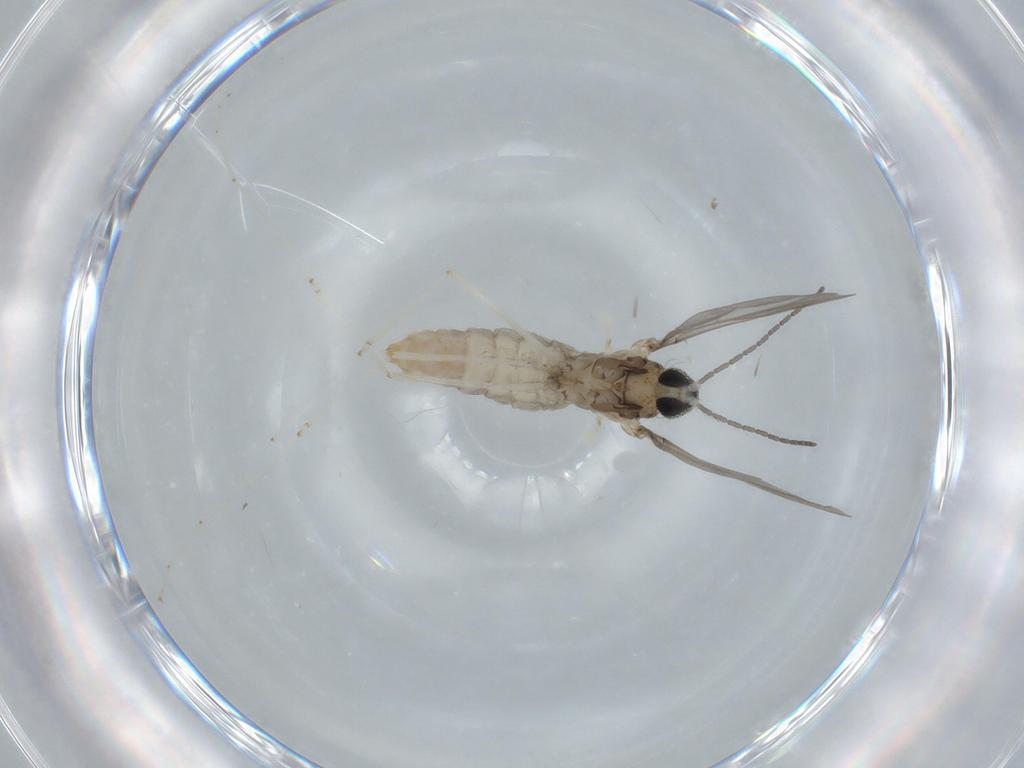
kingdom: Animalia
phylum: Arthropoda
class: Insecta
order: Diptera
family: Cecidomyiidae
